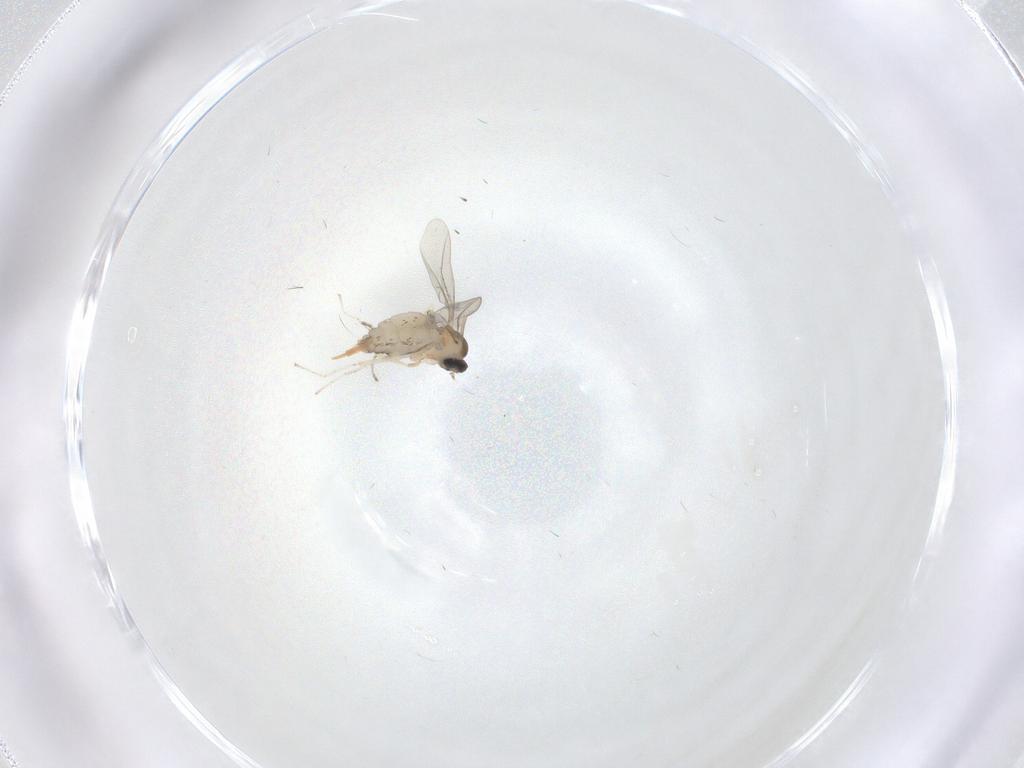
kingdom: Animalia
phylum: Arthropoda
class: Insecta
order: Diptera
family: Cecidomyiidae
